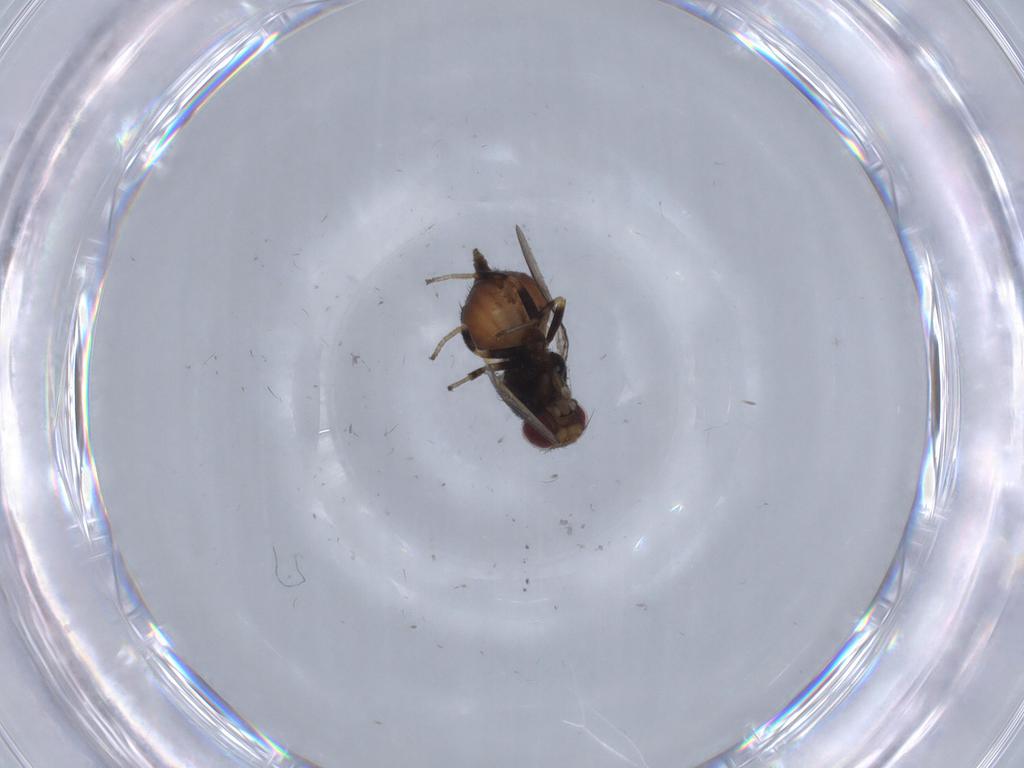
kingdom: Animalia
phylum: Arthropoda
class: Insecta
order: Diptera
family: Chloropidae
